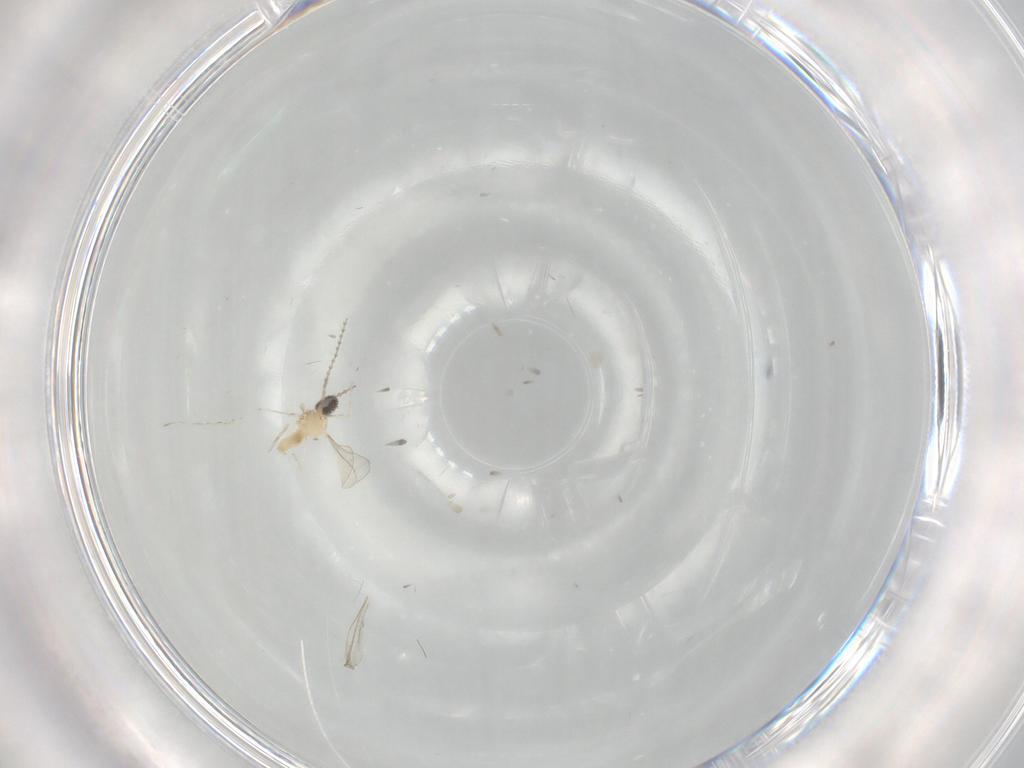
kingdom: Animalia
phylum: Arthropoda
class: Insecta
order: Diptera
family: Cecidomyiidae
